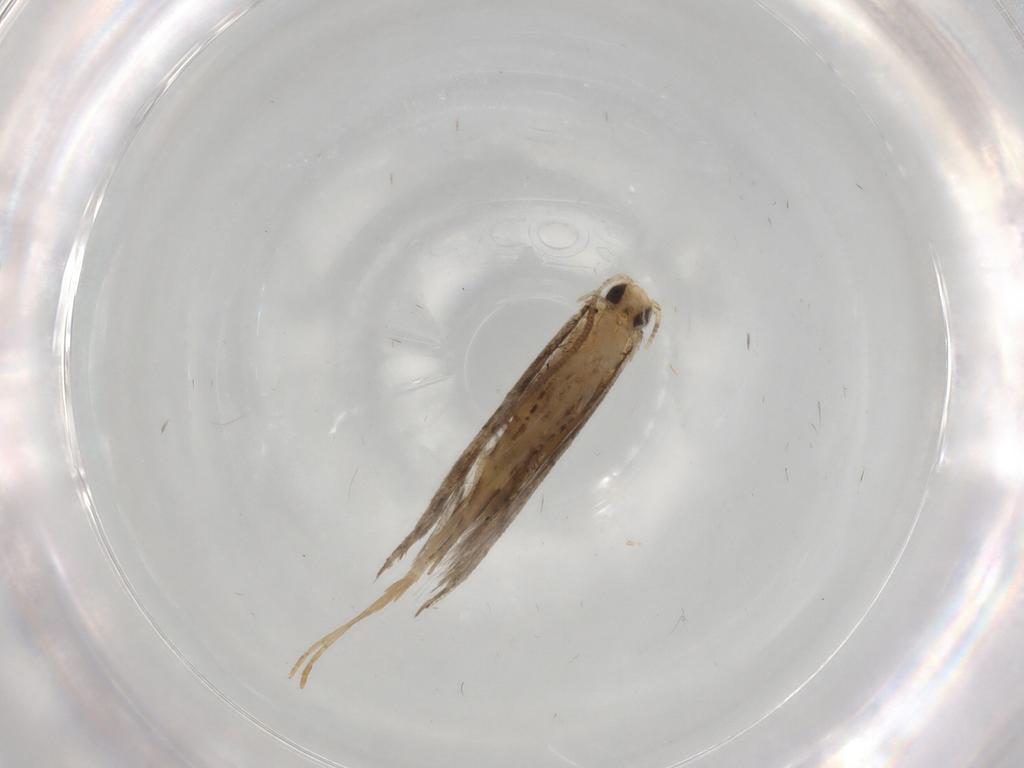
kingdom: Animalia
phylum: Arthropoda
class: Insecta
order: Lepidoptera
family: Tineidae
